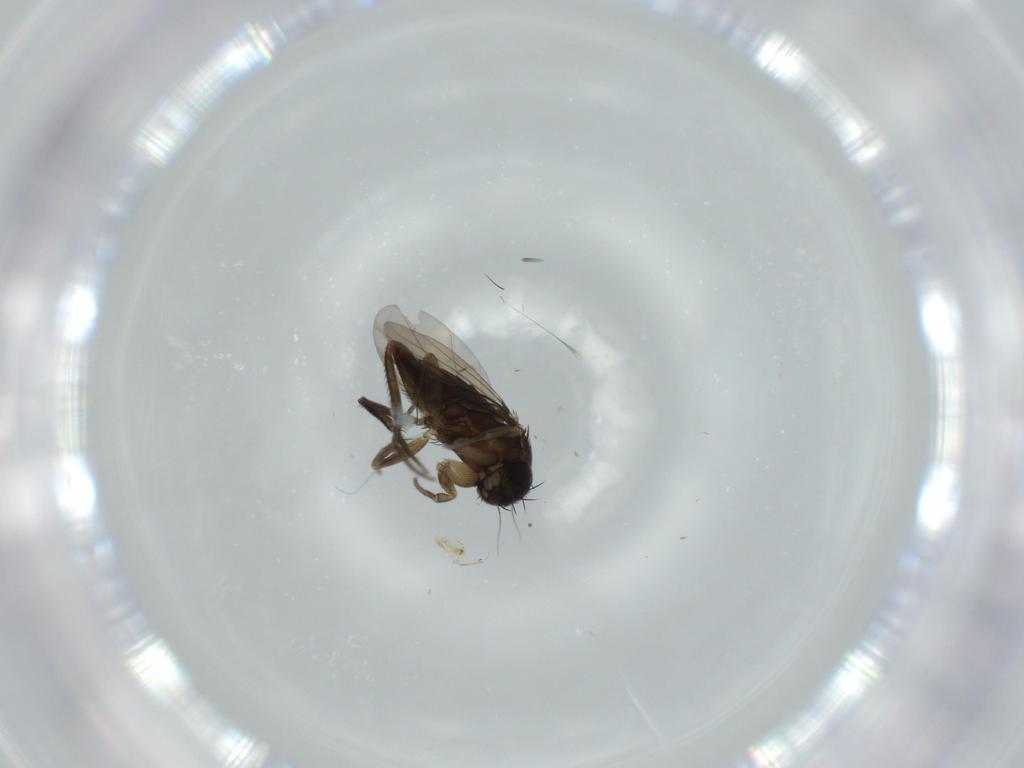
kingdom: Animalia
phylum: Arthropoda
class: Insecta
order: Diptera
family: Phoridae
